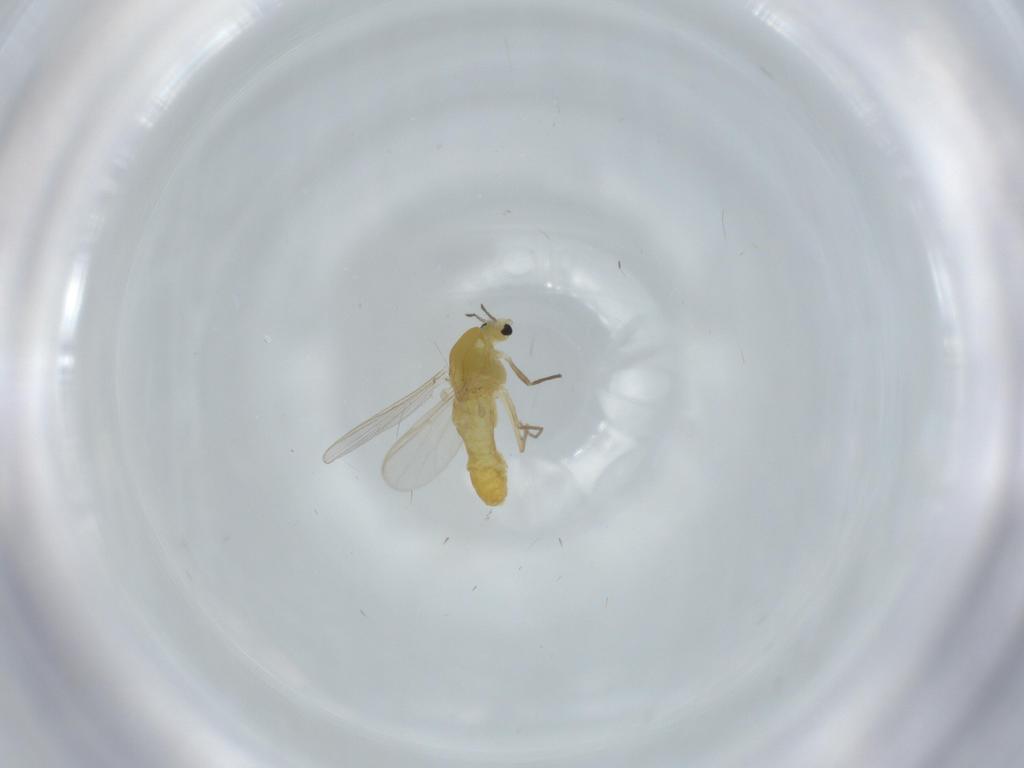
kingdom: Animalia
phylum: Arthropoda
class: Insecta
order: Diptera
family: Chironomidae
